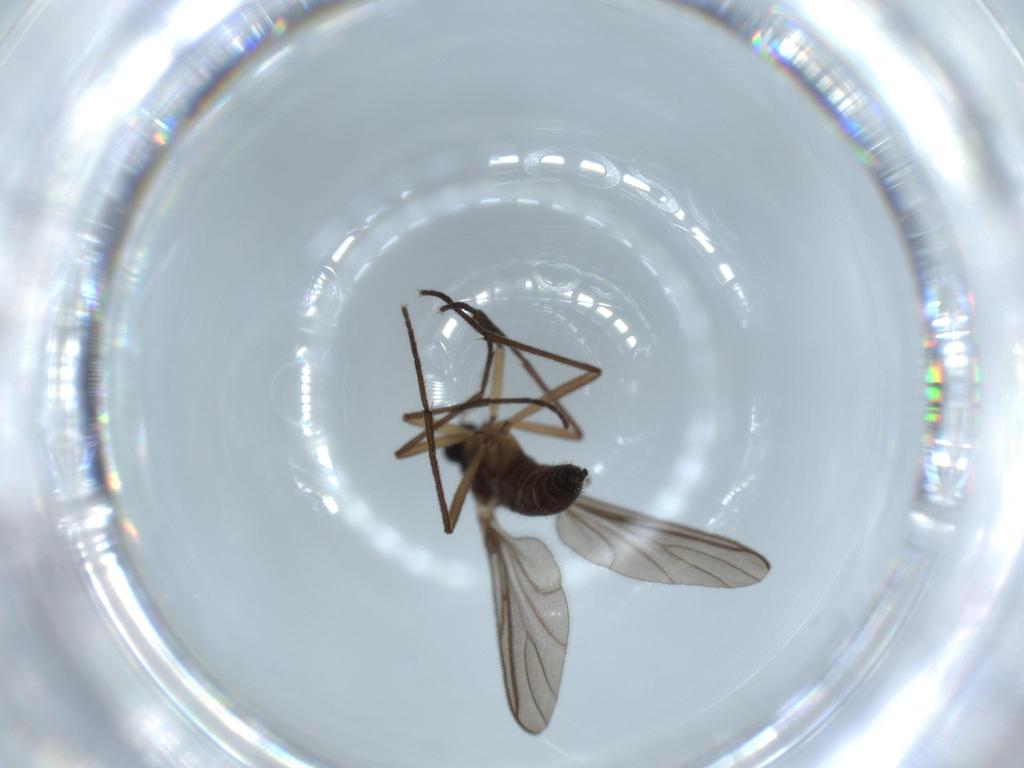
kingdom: Animalia
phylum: Arthropoda
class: Insecta
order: Diptera
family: Sciaridae
